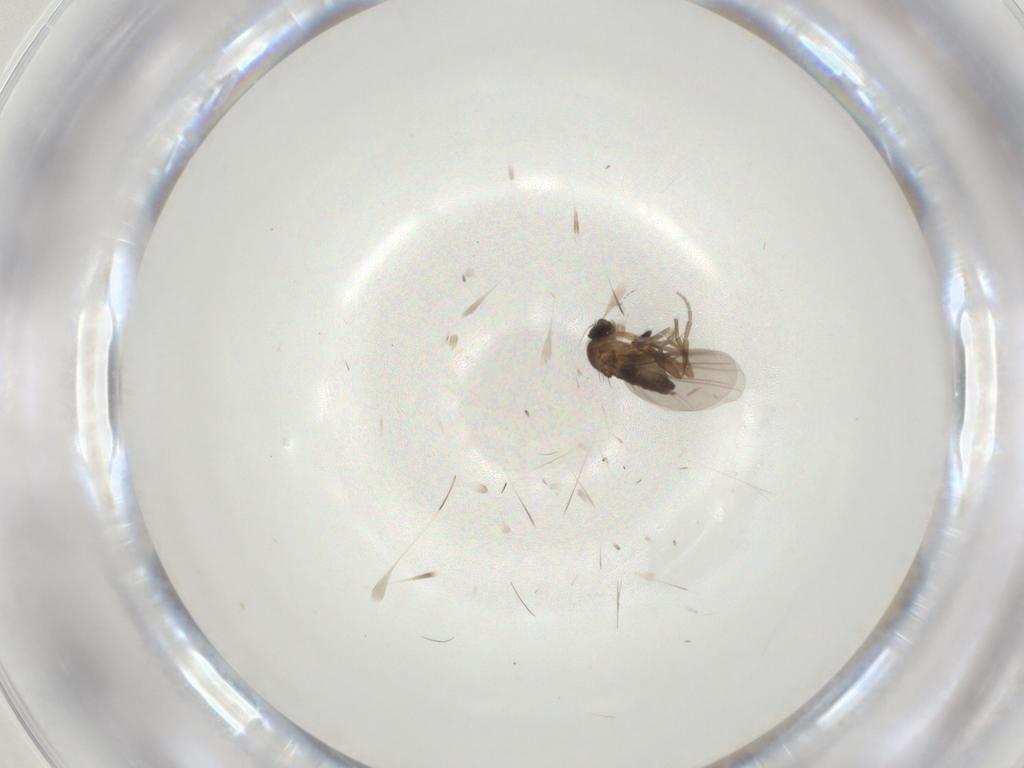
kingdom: Animalia
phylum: Arthropoda
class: Insecta
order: Diptera
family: Asilidae
